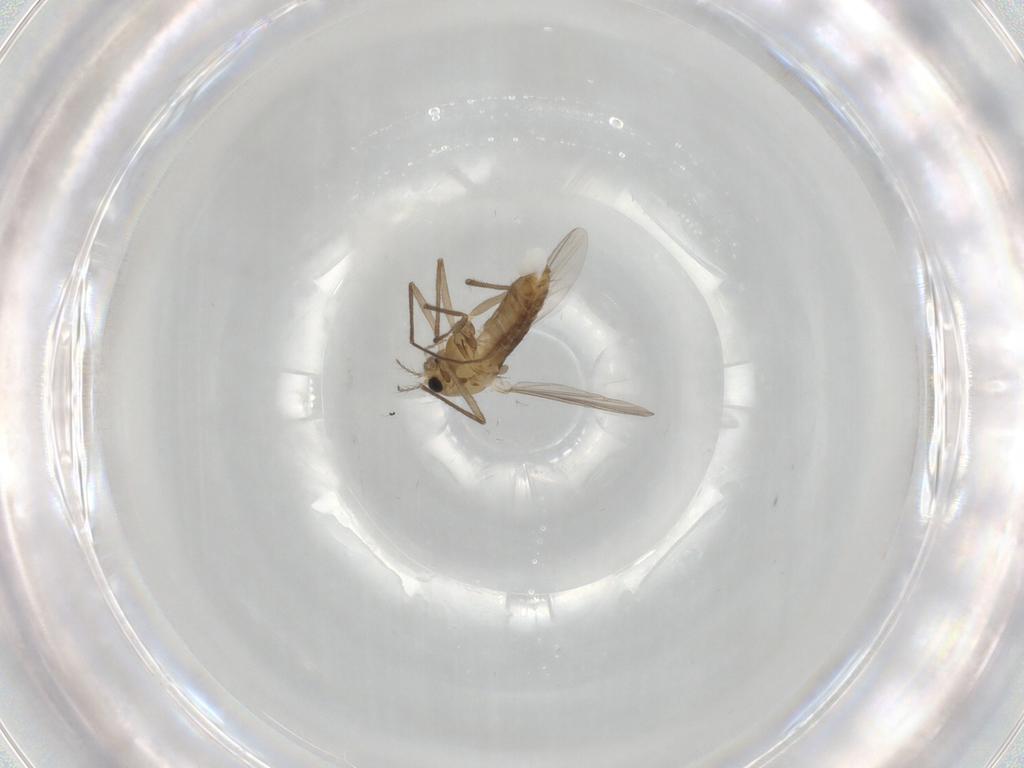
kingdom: Animalia
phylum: Arthropoda
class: Insecta
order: Diptera
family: Chironomidae
